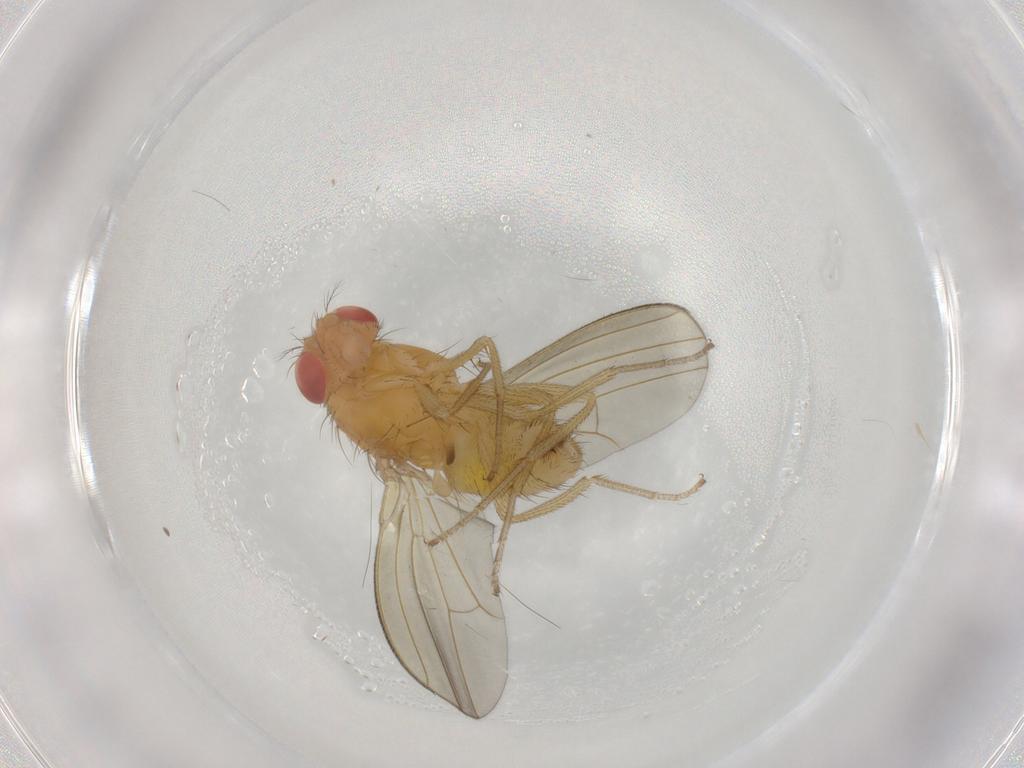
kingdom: Animalia
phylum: Arthropoda
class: Insecta
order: Diptera
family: Drosophilidae
